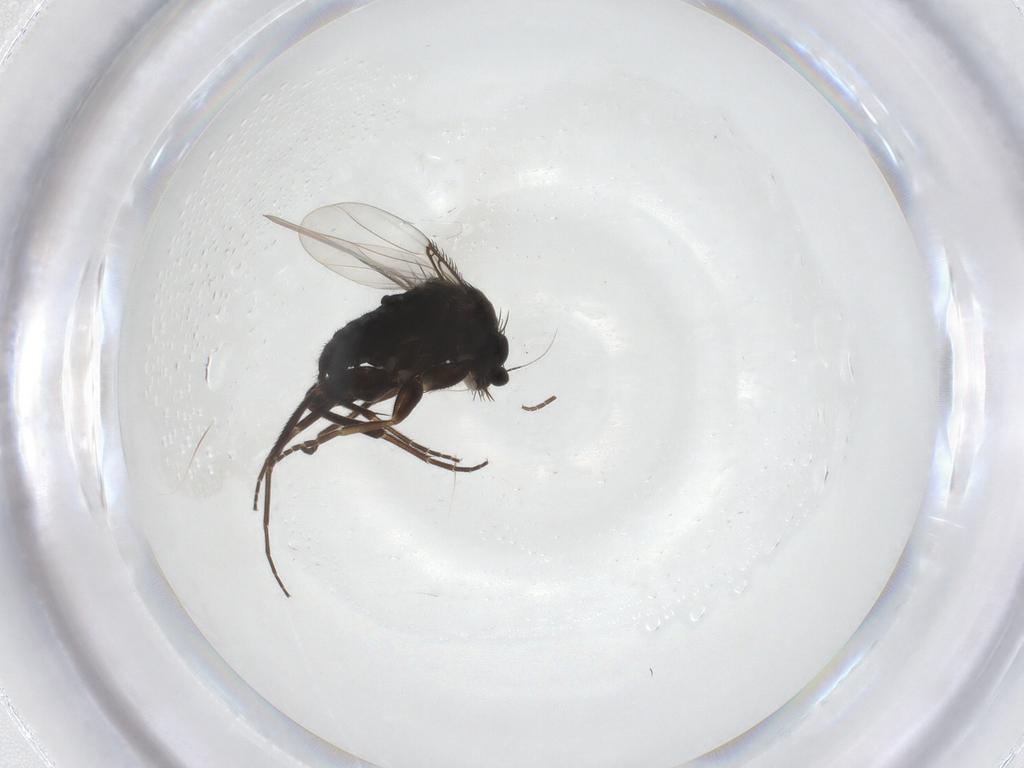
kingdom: Animalia
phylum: Arthropoda
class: Insecta
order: Diptera
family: Phoridae
